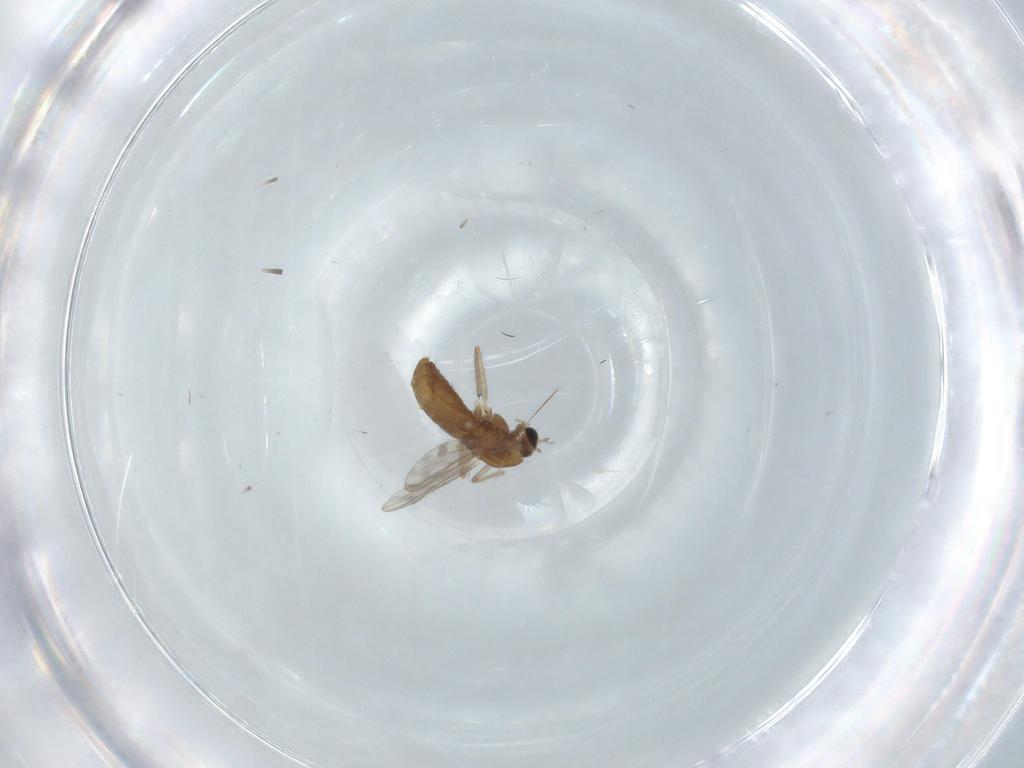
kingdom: Animalia
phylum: Arthropoda
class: Insecta
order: Diptera
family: Chironomidae
